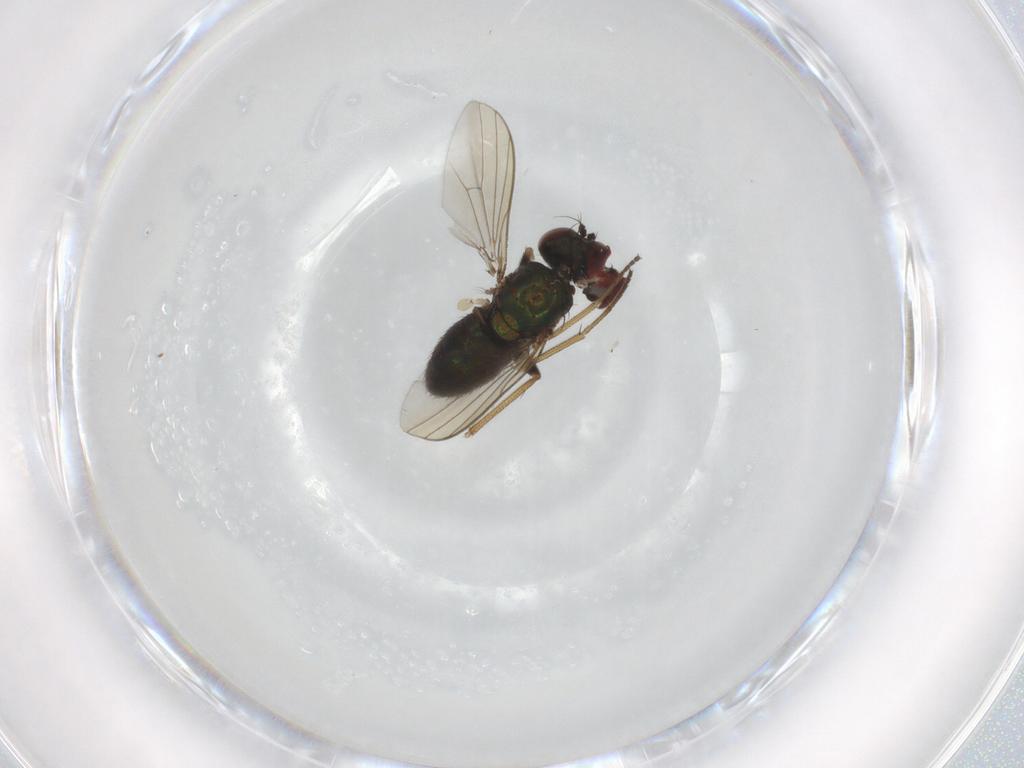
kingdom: Animalia
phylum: Arthropoda
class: Insecta
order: Diptera
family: Dolichopodidae
